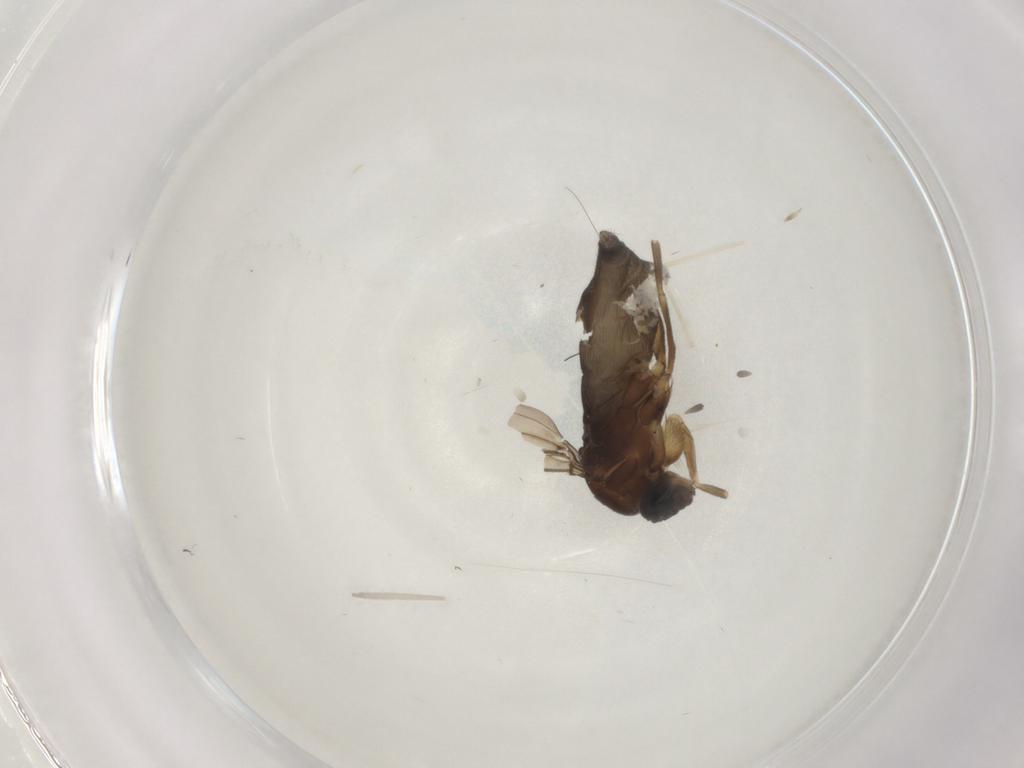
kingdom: Animalia
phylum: Arthropoda
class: Insecta
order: Diptera
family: Phoridae
